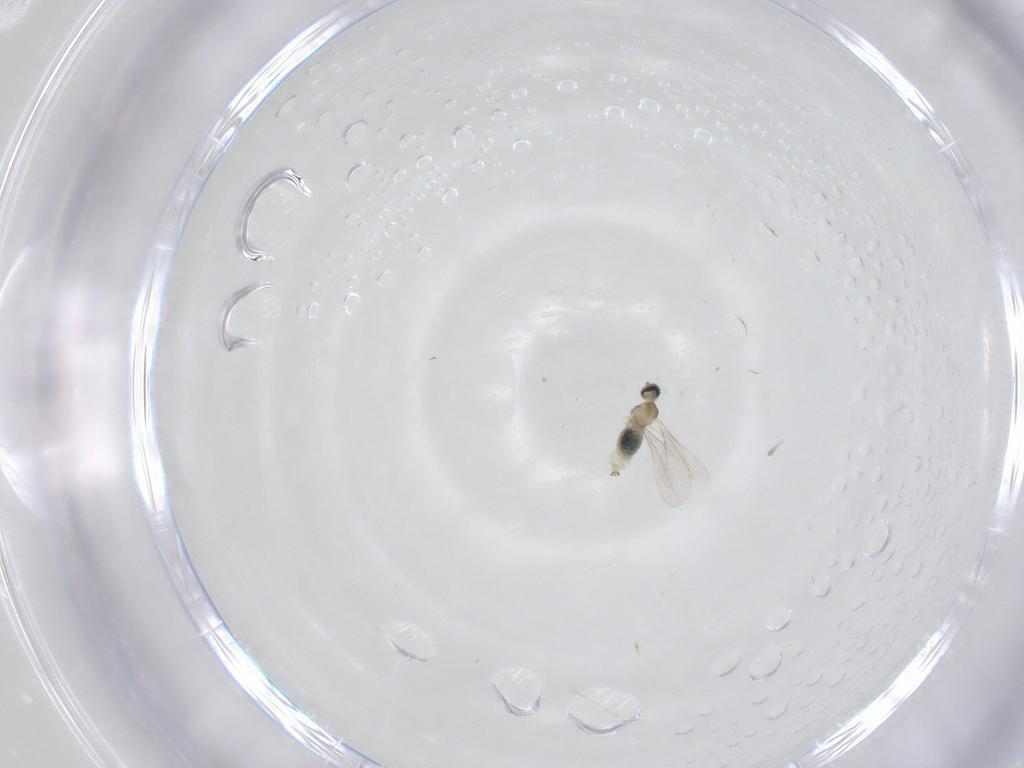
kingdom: Animalia
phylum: Arthropoda
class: Insecta
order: Diptera
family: Cecidomyiidae
